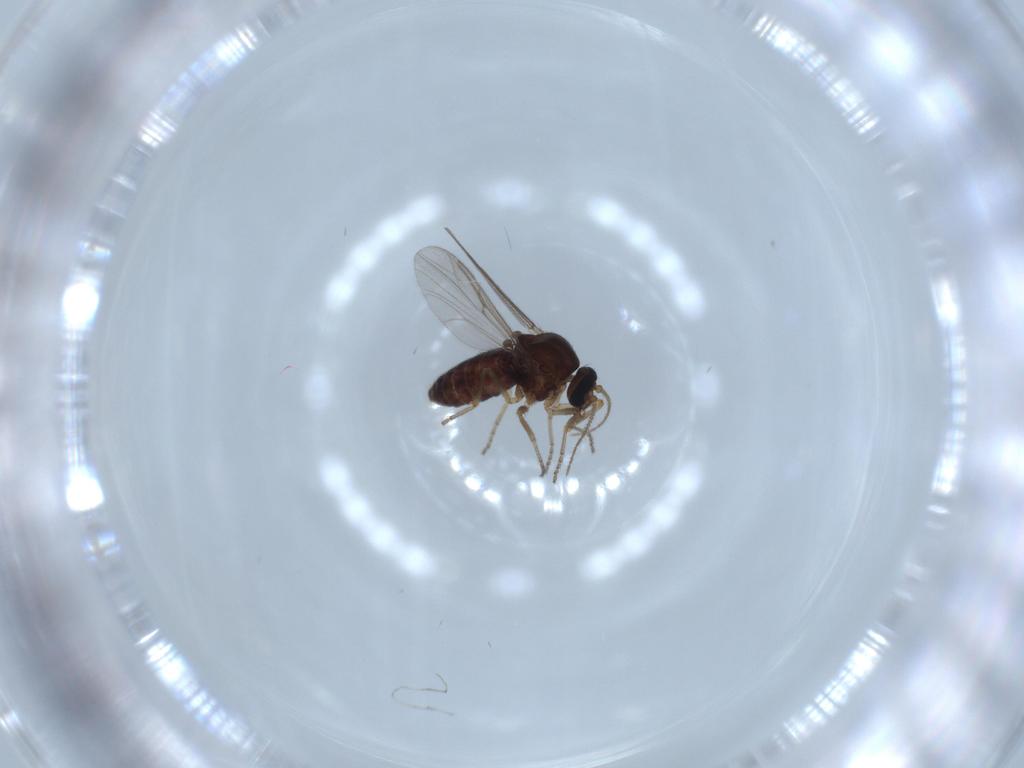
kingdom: Animalia
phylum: Arthropoda
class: Insecta
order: Diptera
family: Ceratopogonidae
